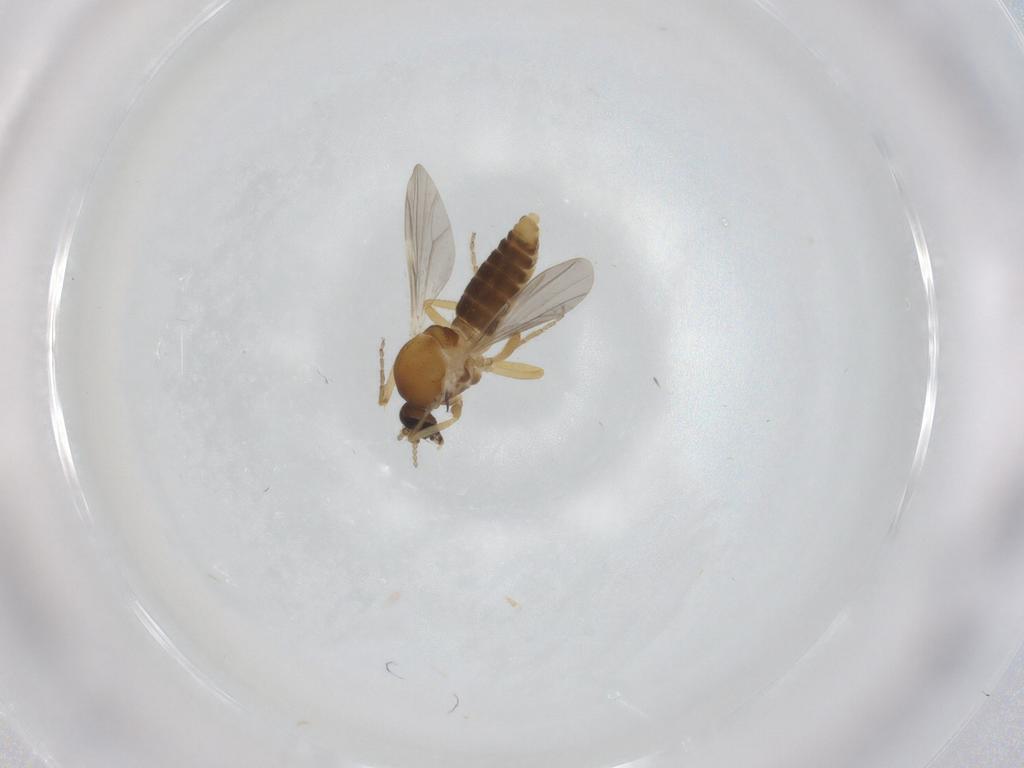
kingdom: Animalia
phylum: Arthropoda
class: Insecta
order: Diptera
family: Ceratopogonidae
